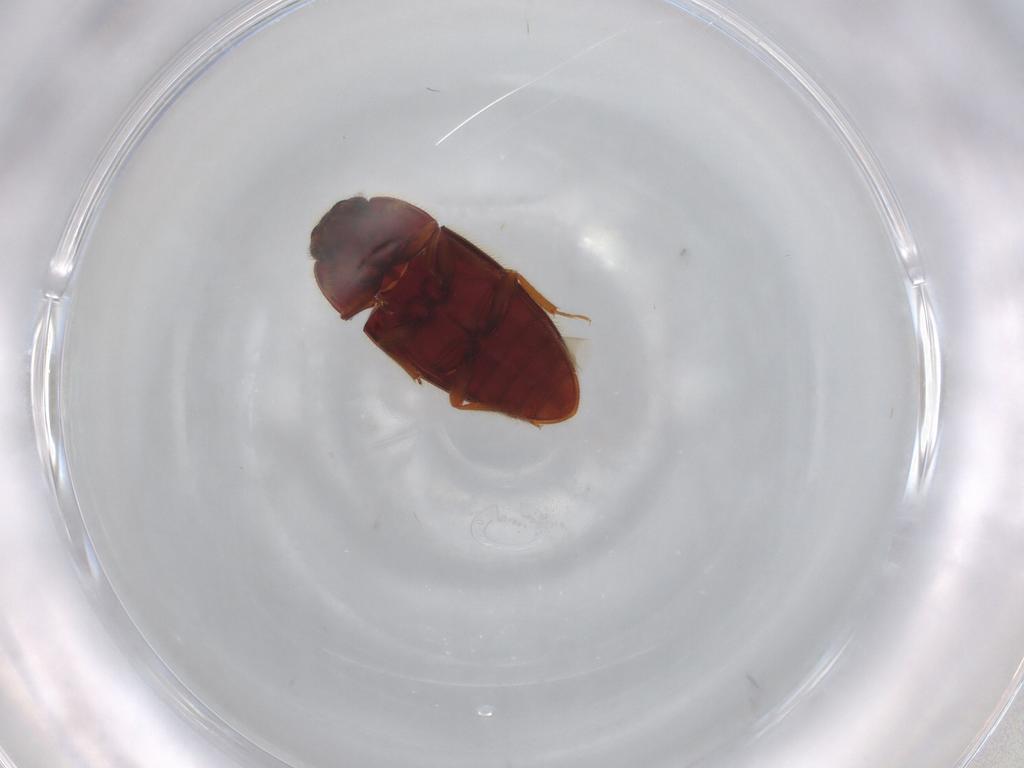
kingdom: Animalia
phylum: Arthropoda
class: Insecta
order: Coleoptera
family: Biphyllidae
